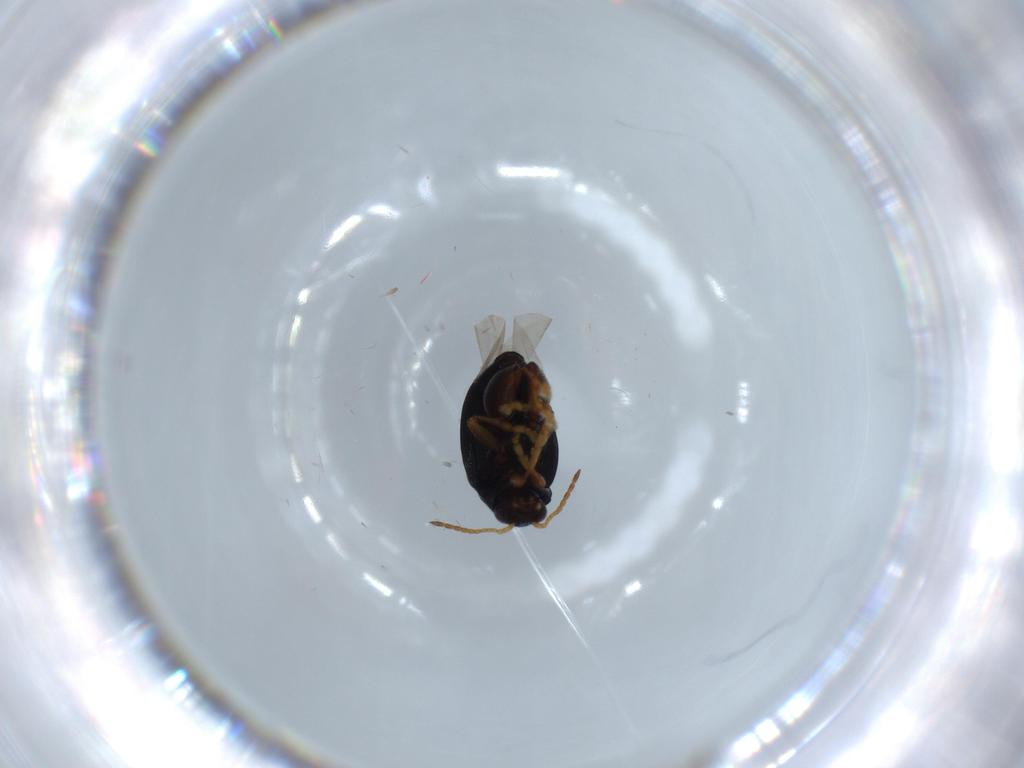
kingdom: Animalia
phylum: Arthropoda
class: Insecta
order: Coleoptera
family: Chrysomelidae
